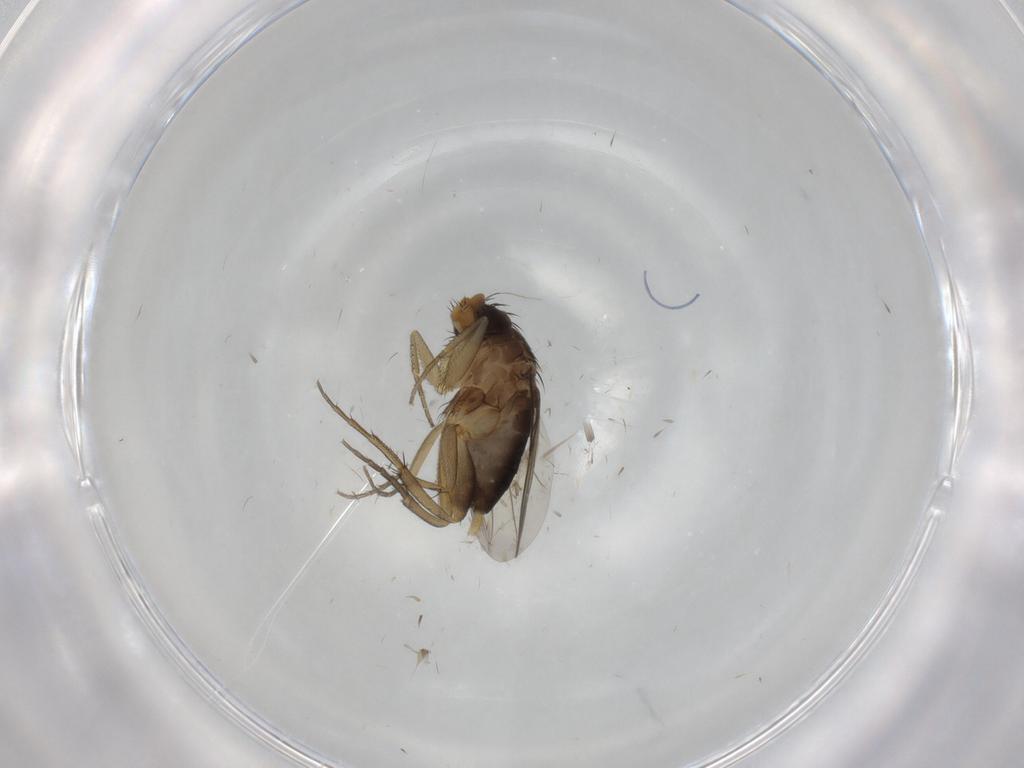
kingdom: Animalia
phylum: Arthropoda
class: Insecta
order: Diptera
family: Phoridae
